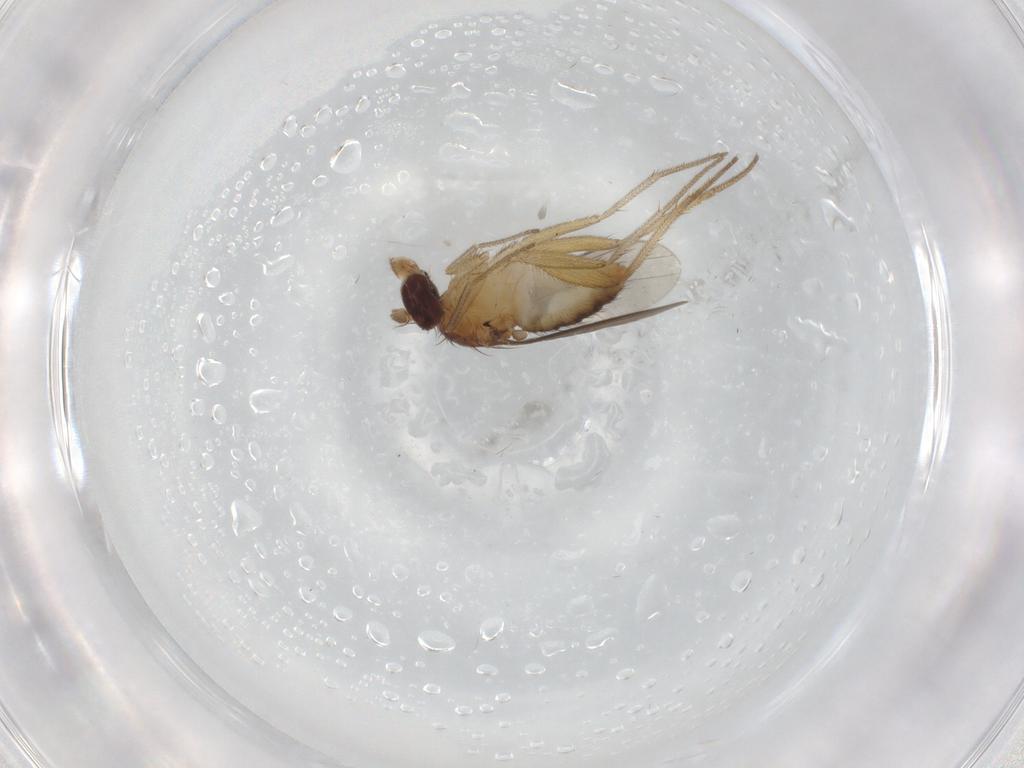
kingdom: Animalia
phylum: Arthropoda
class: Insecta
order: Diptera
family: Dolichopodidae
